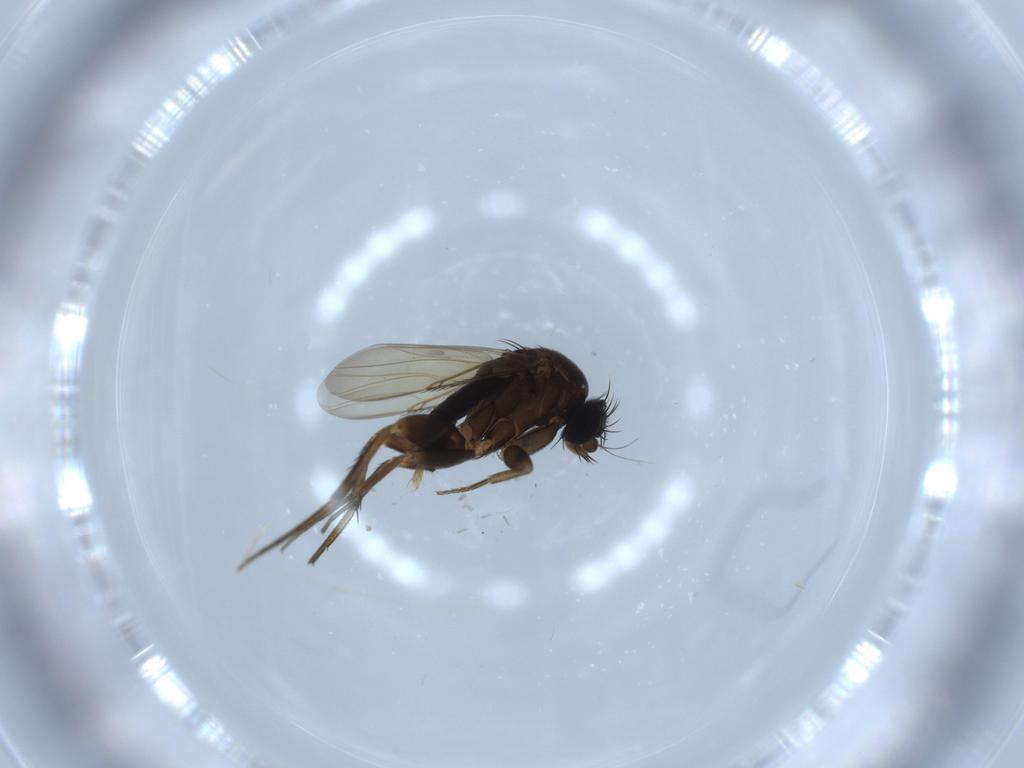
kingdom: Animalia
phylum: Arthropoda
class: Insecta
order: Diptera
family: Phoridae
